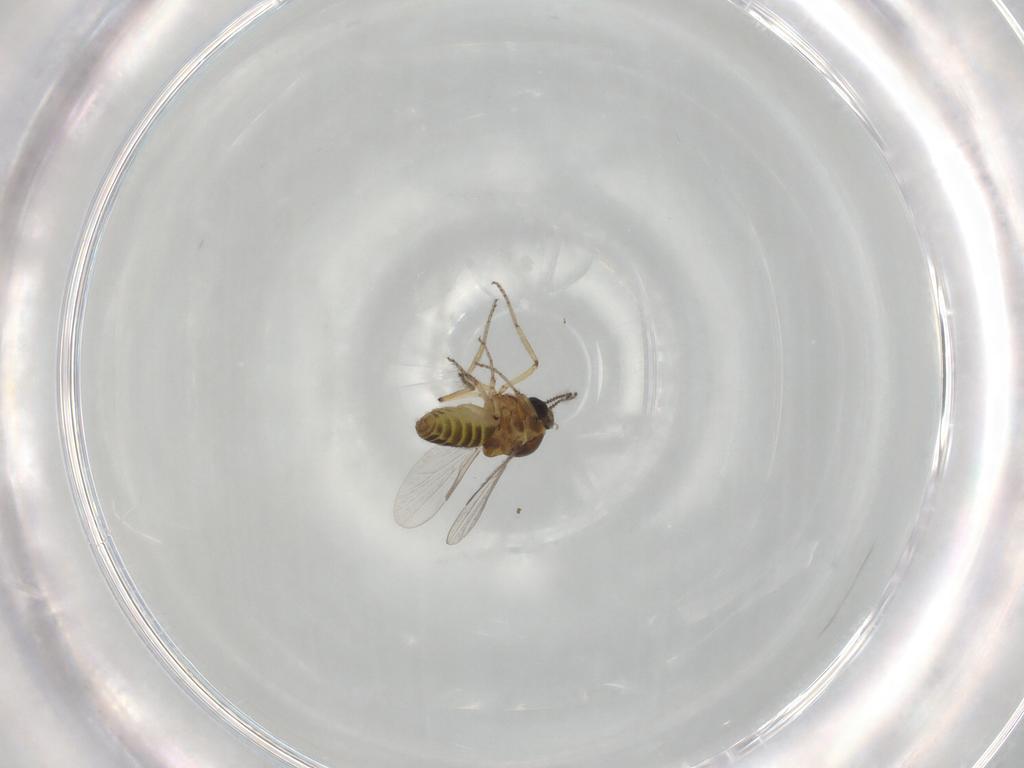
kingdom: Animalia
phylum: Arthropoda
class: Insecta
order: Diptera
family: Ceratopogonidae
